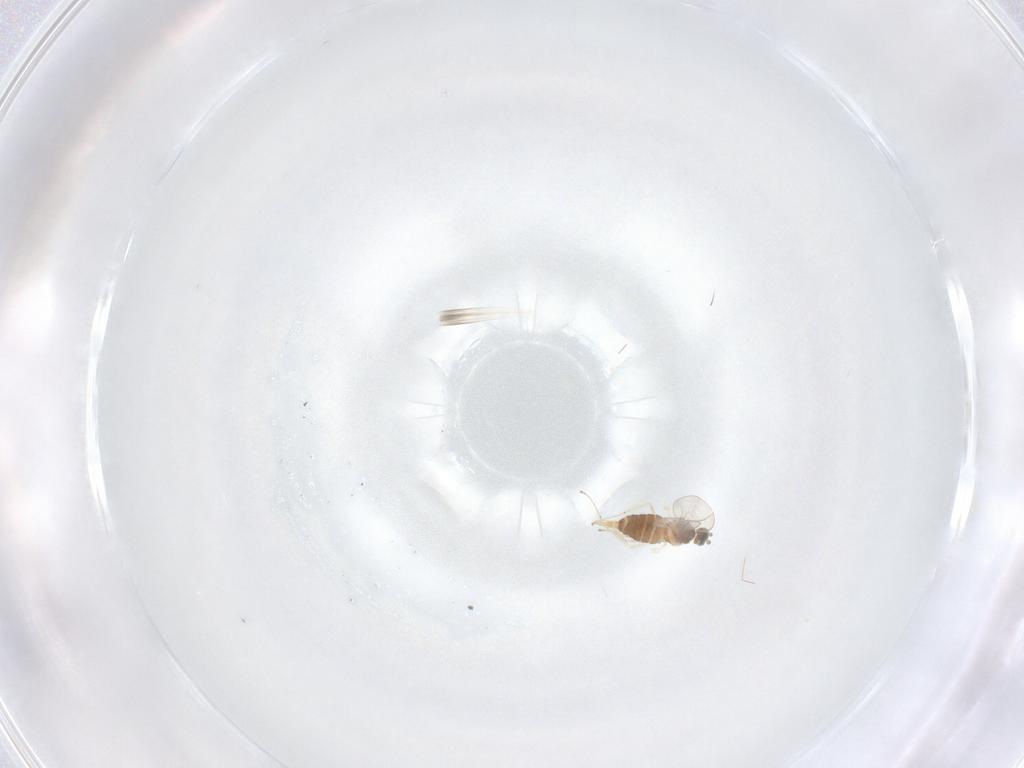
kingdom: Animalia
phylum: Arthropoda
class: Insecta
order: Diptera
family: Cecidomyiidae
